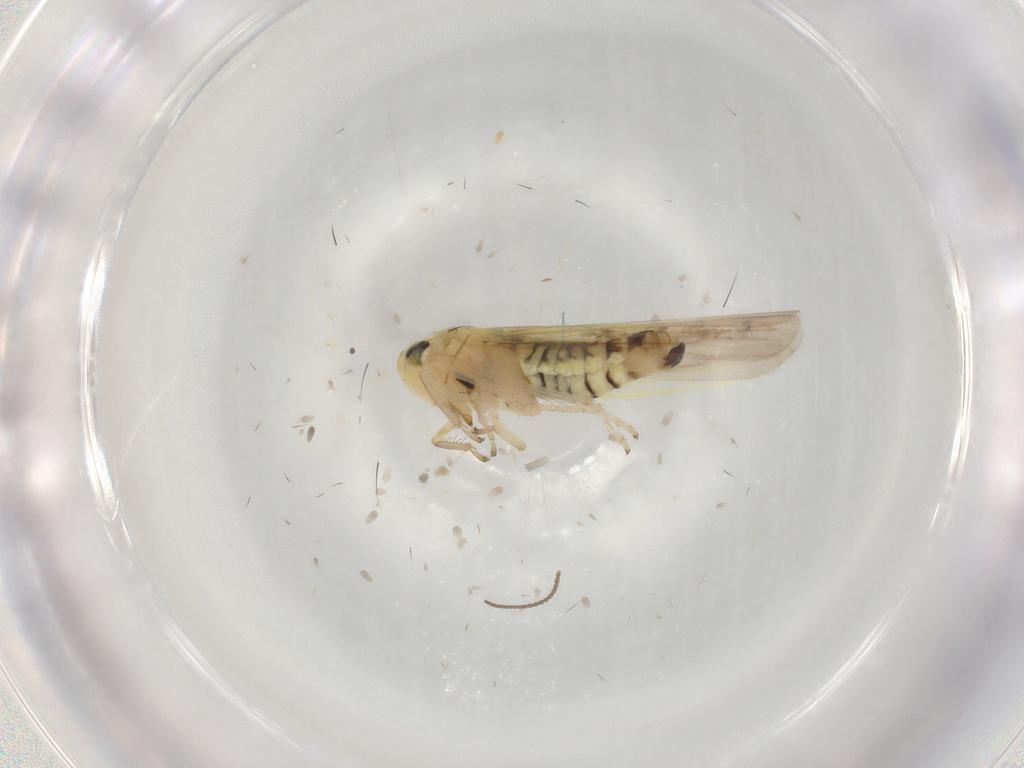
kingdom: Animalia
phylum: Arthropoda
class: Insecta
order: Hemiptera
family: Cicadellidae
